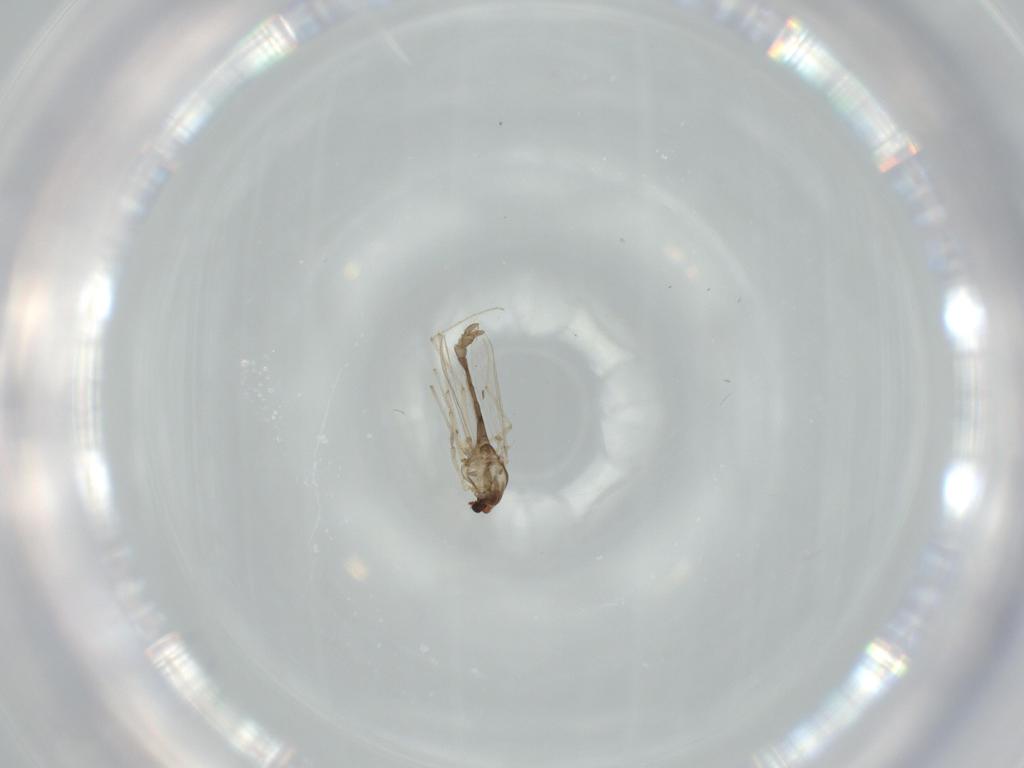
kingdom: Animalia
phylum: Arthropoda
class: Insecta
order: Diptera
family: Chironomidae
